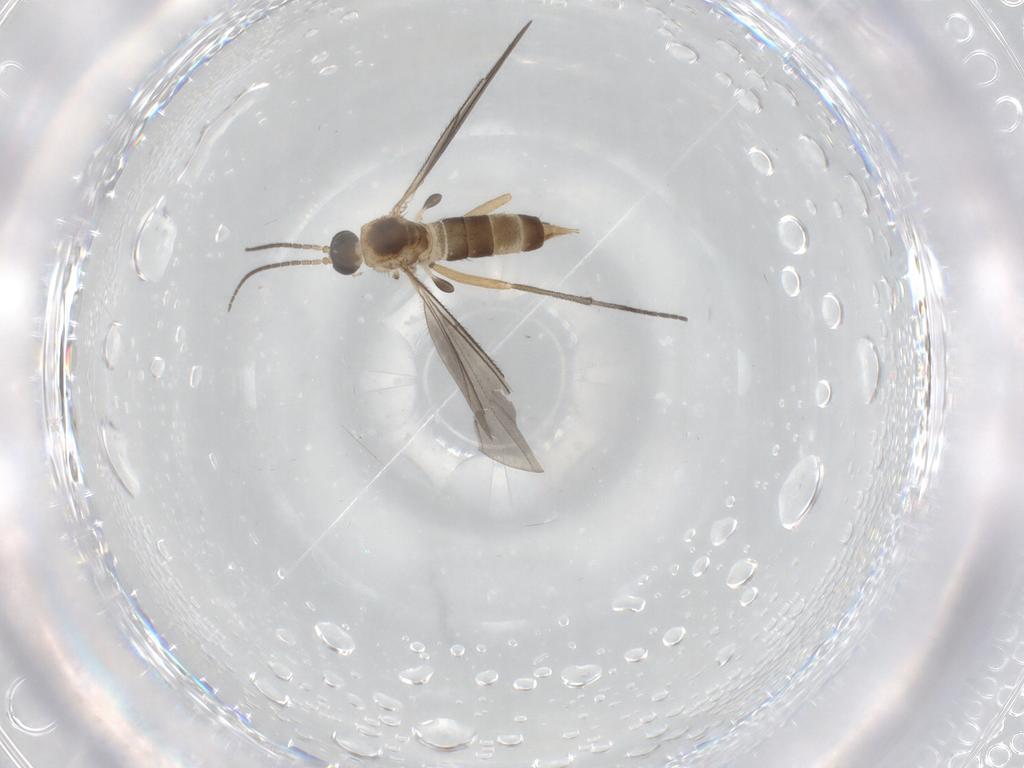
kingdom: Animalia
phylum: Arthropoda
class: Insecta
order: Diptera
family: Sciaridae
